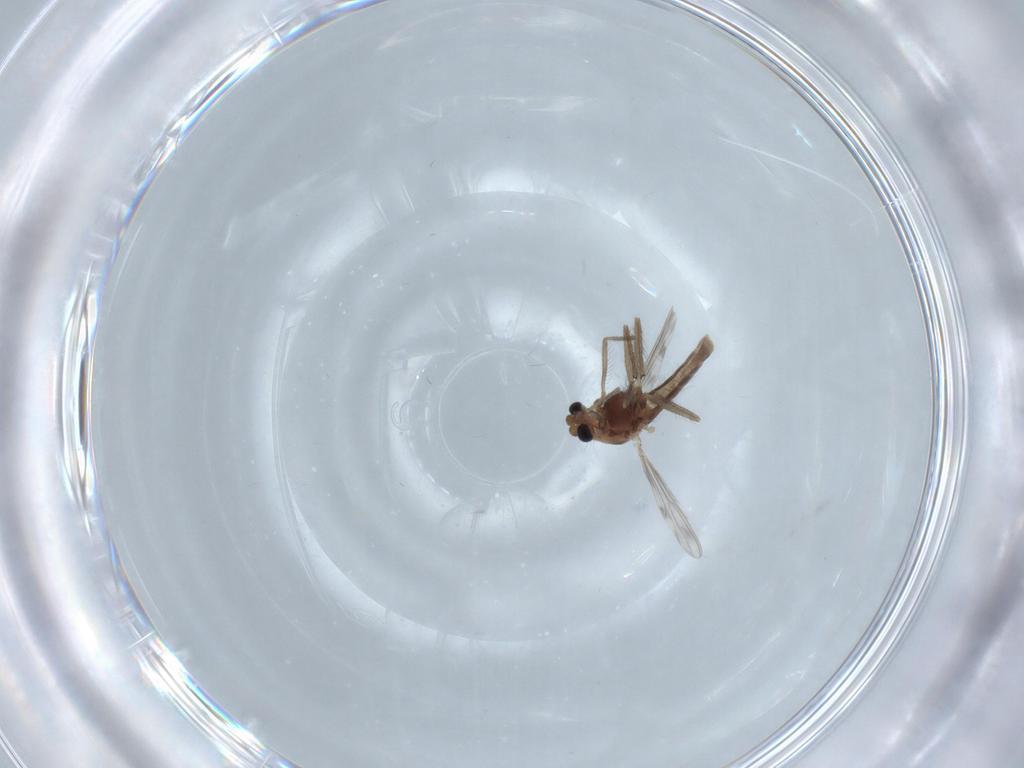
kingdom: Animalia
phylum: Arthropoda
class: Insecta
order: Diptera
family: Chironomidae
